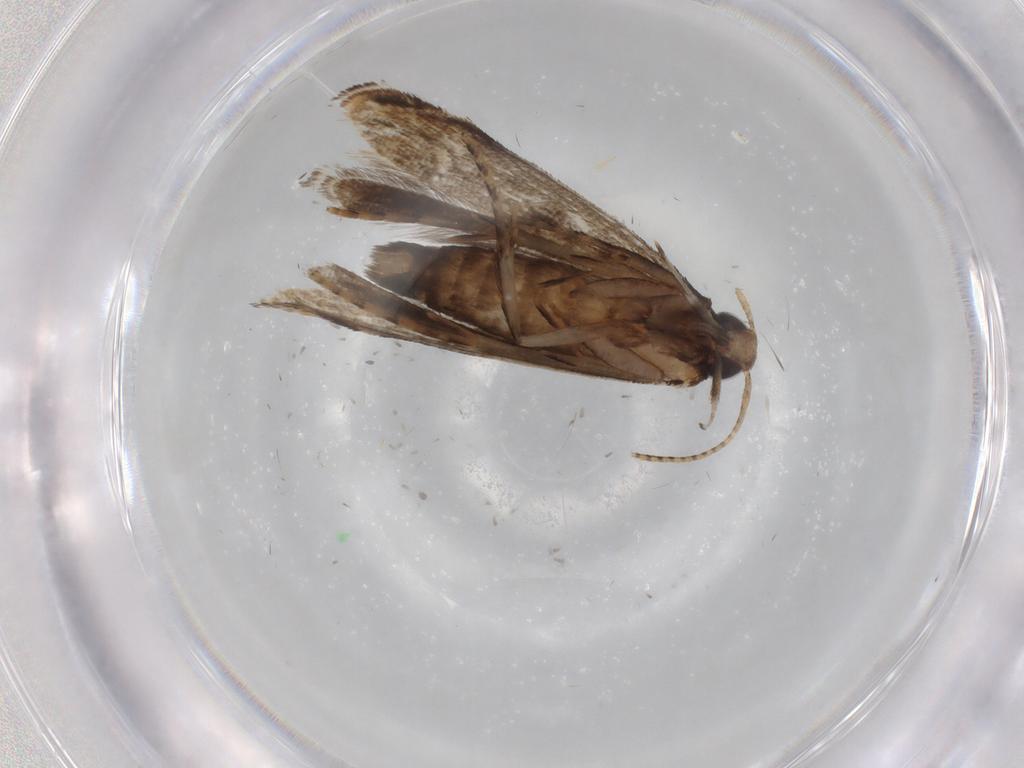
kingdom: Animalia
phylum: Arthropoda
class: Insecta
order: Lepidoptera
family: Gelechiidae
